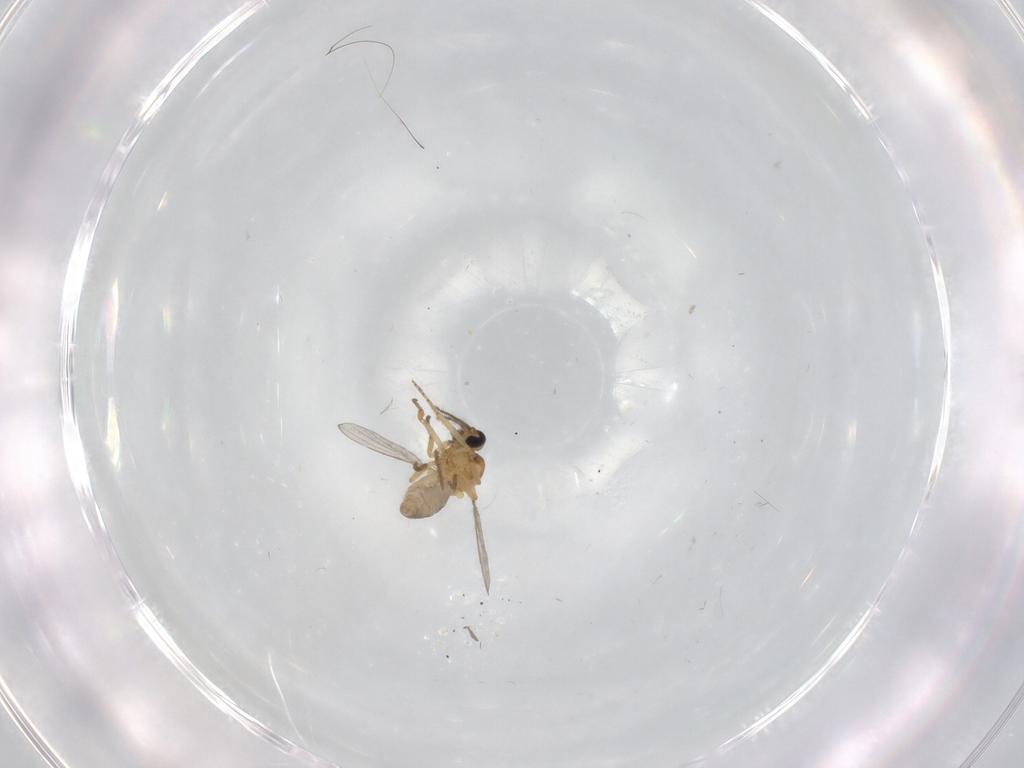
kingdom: Animalia
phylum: Arthropoda
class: Insecta
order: Diptera
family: Ceratopogonidae
